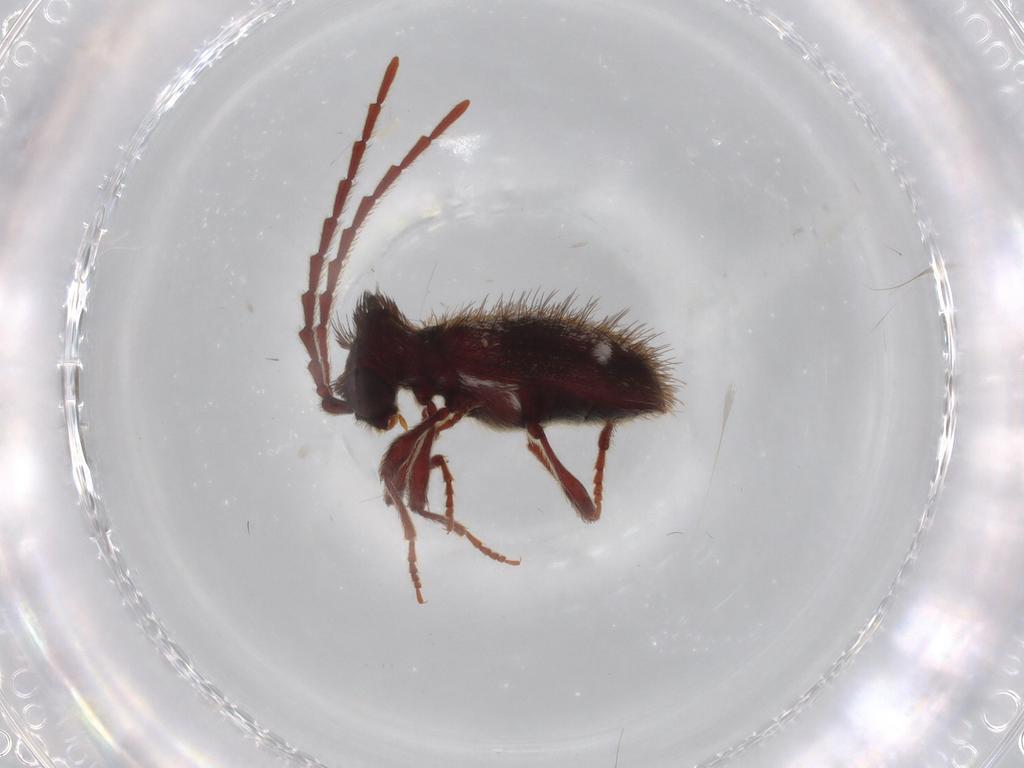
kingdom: Animalia
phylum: Arthropoda
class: Insecta
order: Coleoptera
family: Ptinidae
